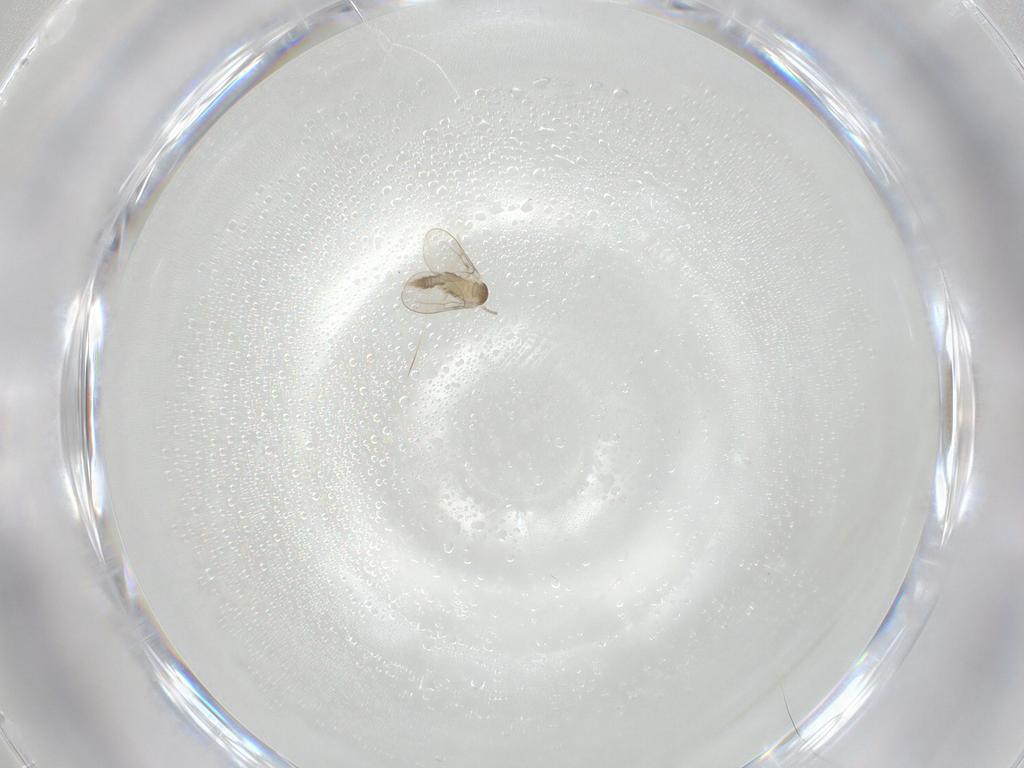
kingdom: Animalia
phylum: Arthropoda
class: Insecta
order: Diptera
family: Cecidomyiidae
